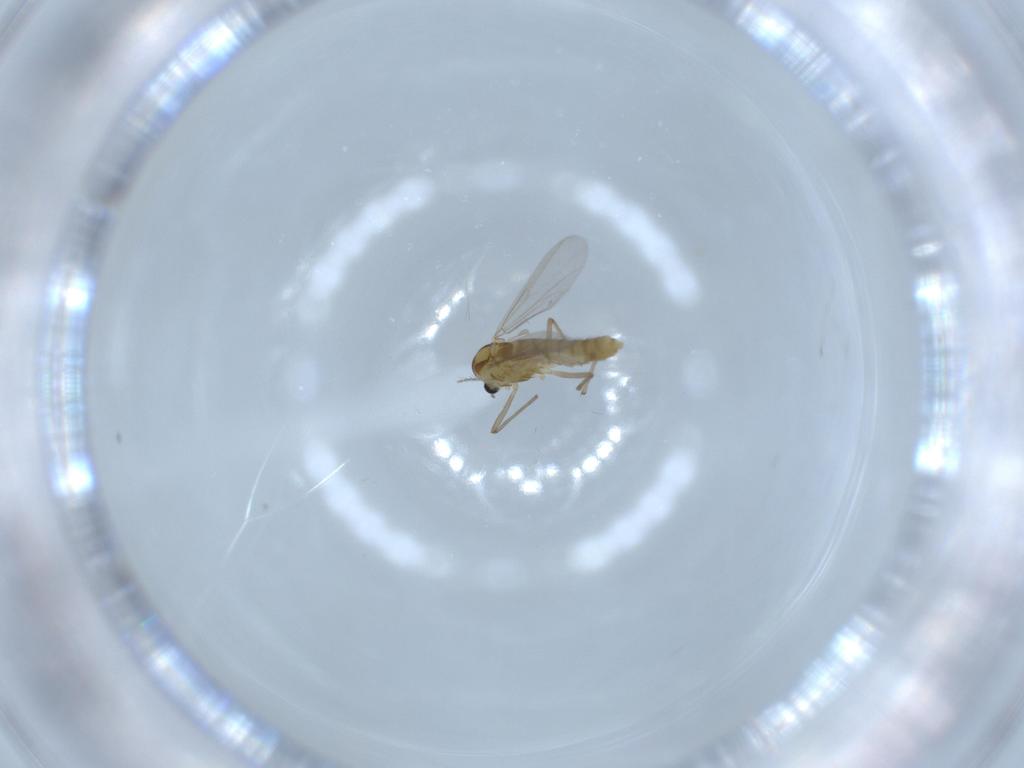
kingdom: Animalia
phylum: Arthropoda
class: Insecta
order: Diptera
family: Chironomidae
